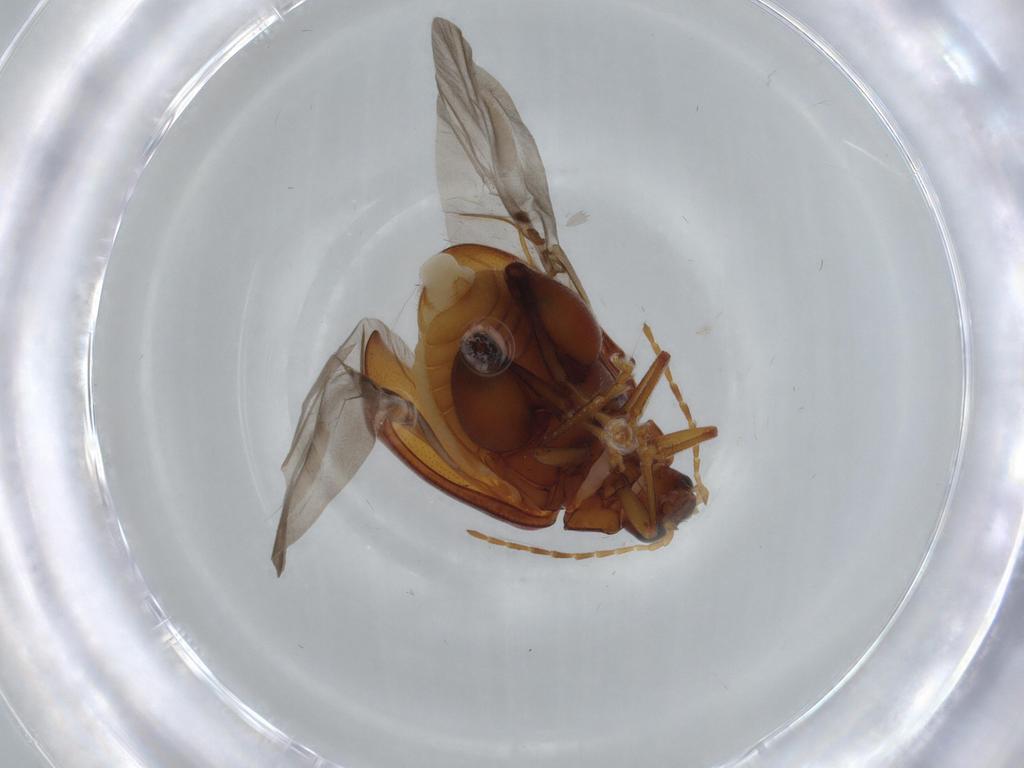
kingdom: Animalia
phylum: Arthropoda
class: Insecta
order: Coleoptera
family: Chrysomelidae
